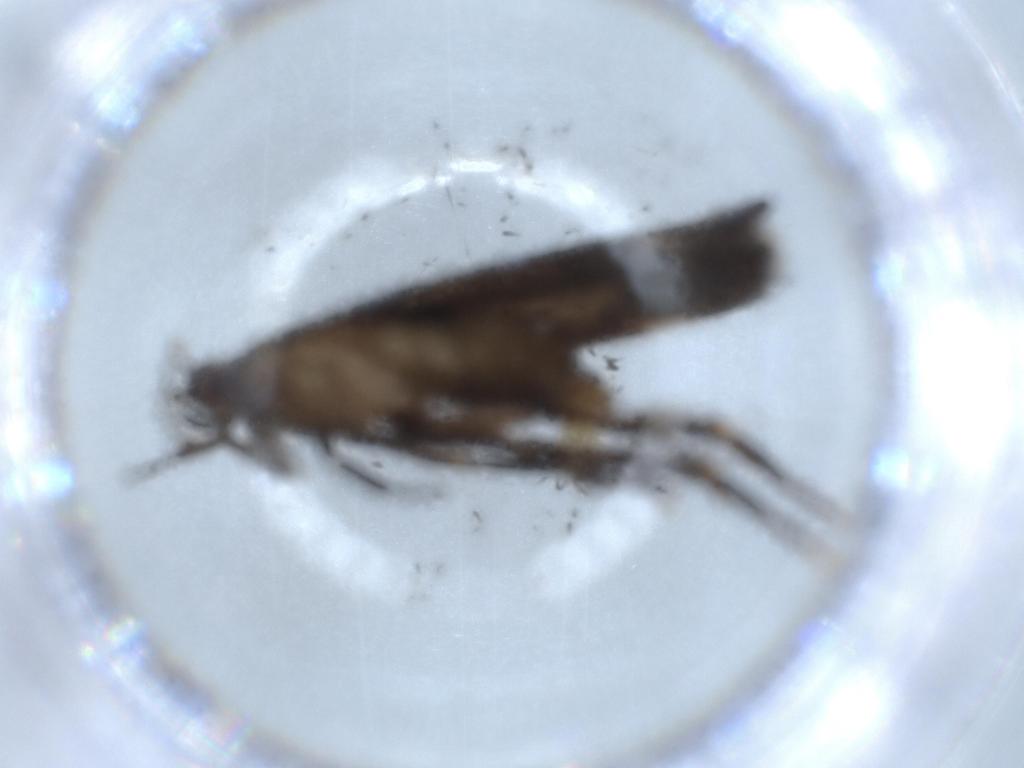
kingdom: Animalia
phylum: Arthropoda
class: Insecta
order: Lepidoptera
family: Cosmopterigidae
